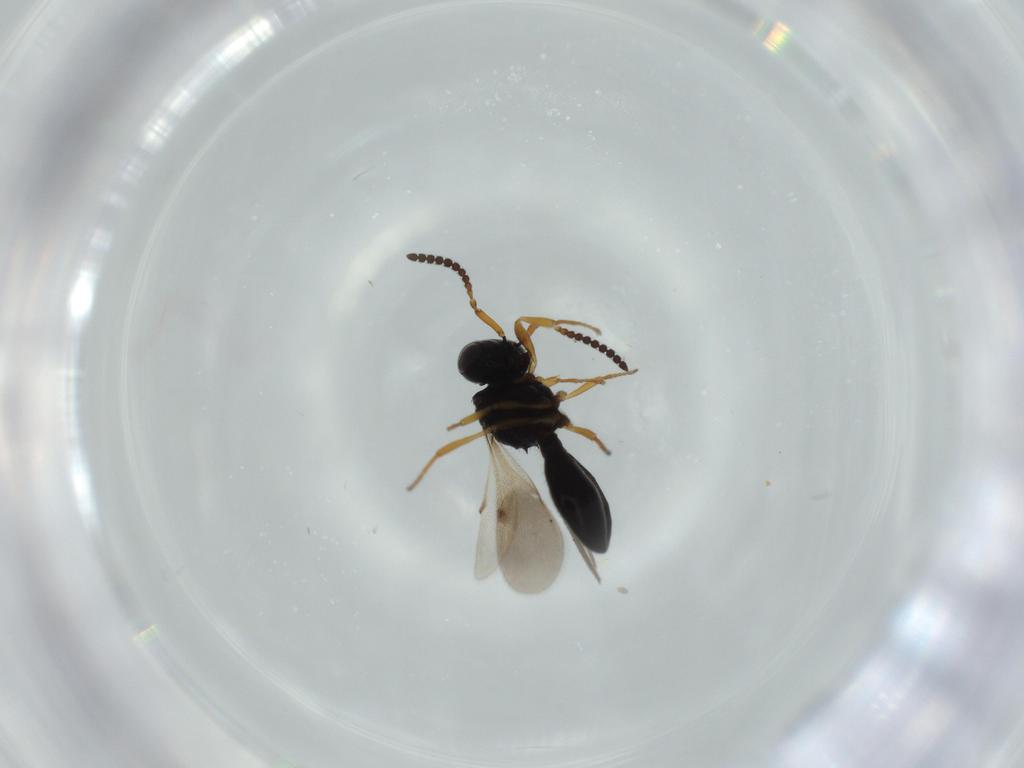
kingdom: Animalia
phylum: Arthropoda
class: Insecta
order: Hymenoptera
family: Scelionidae
